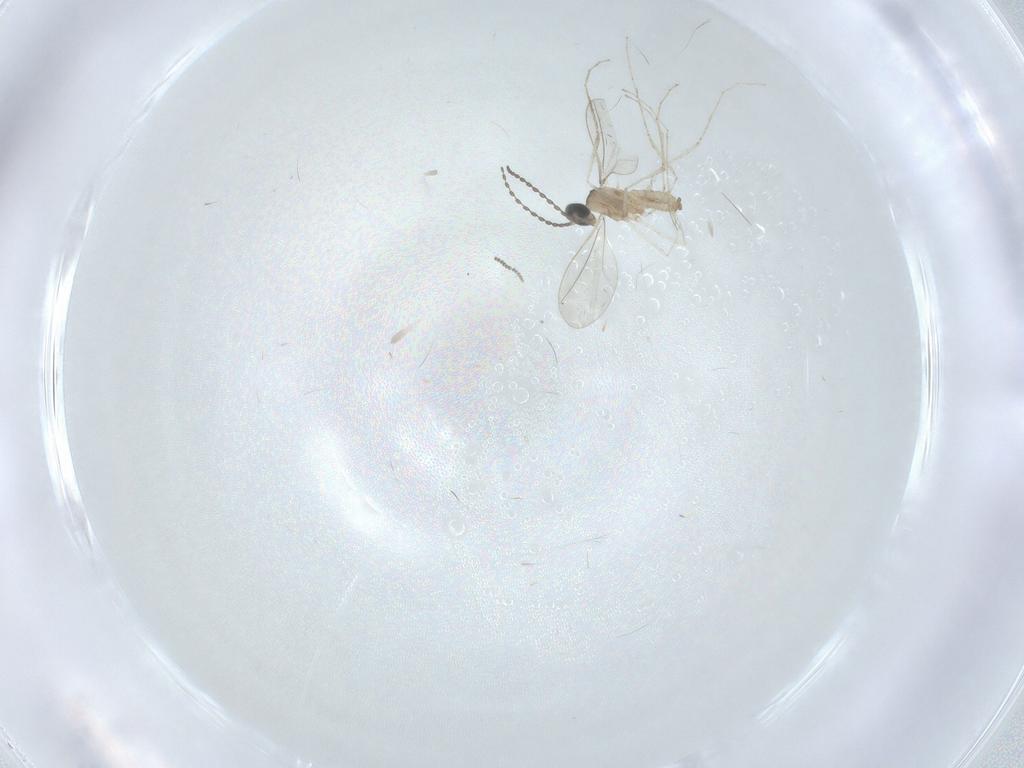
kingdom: Animalia
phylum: Arthropoda
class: Insecta
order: Diptera
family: Cecidomyiidae
